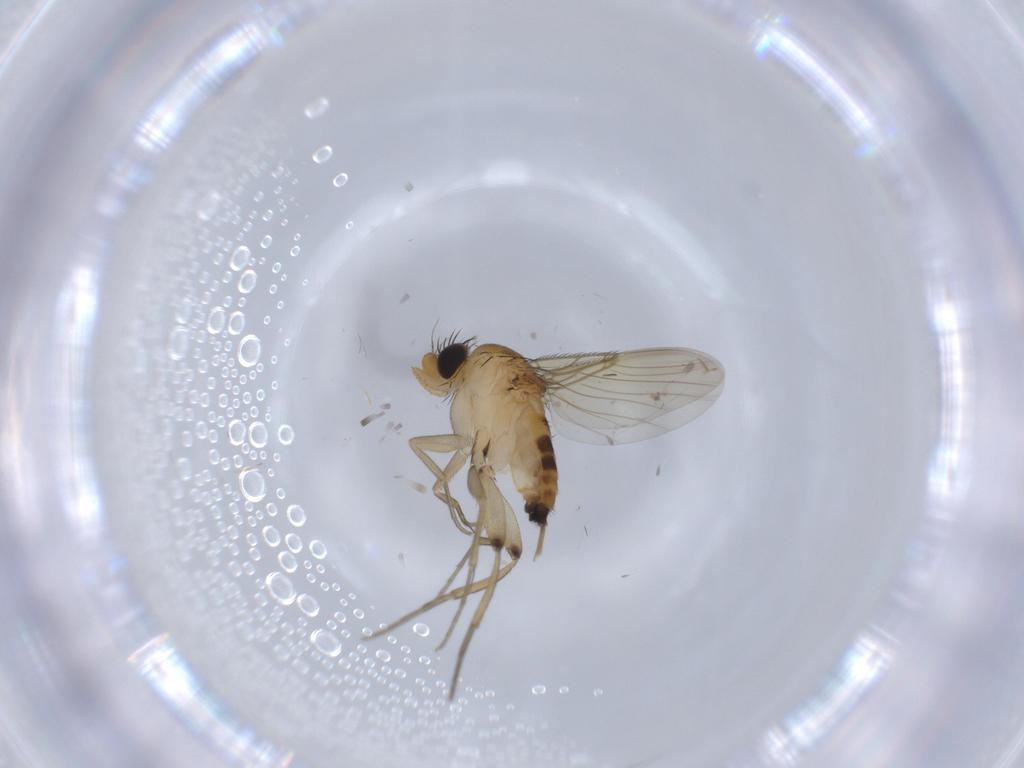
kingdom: Animalia
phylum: Arthropoda
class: Insecta
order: Diptera
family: Phoridae
